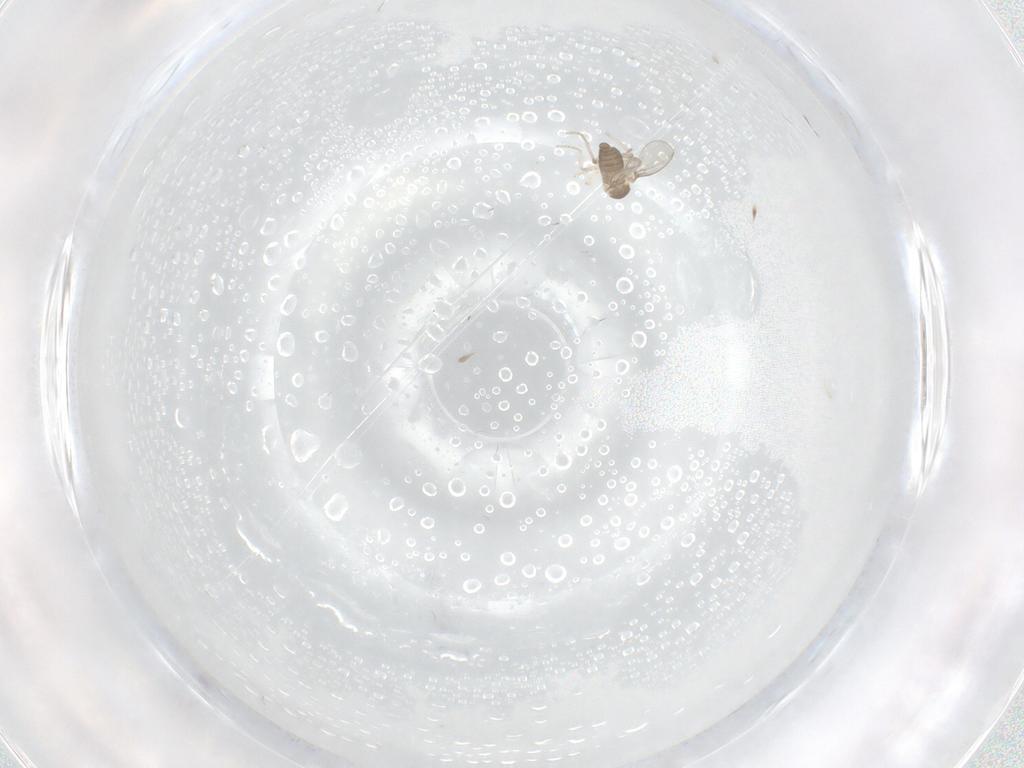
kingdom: Animalia
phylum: Arthropoda
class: Insecta
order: Diptera
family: Cecidomyiidae
